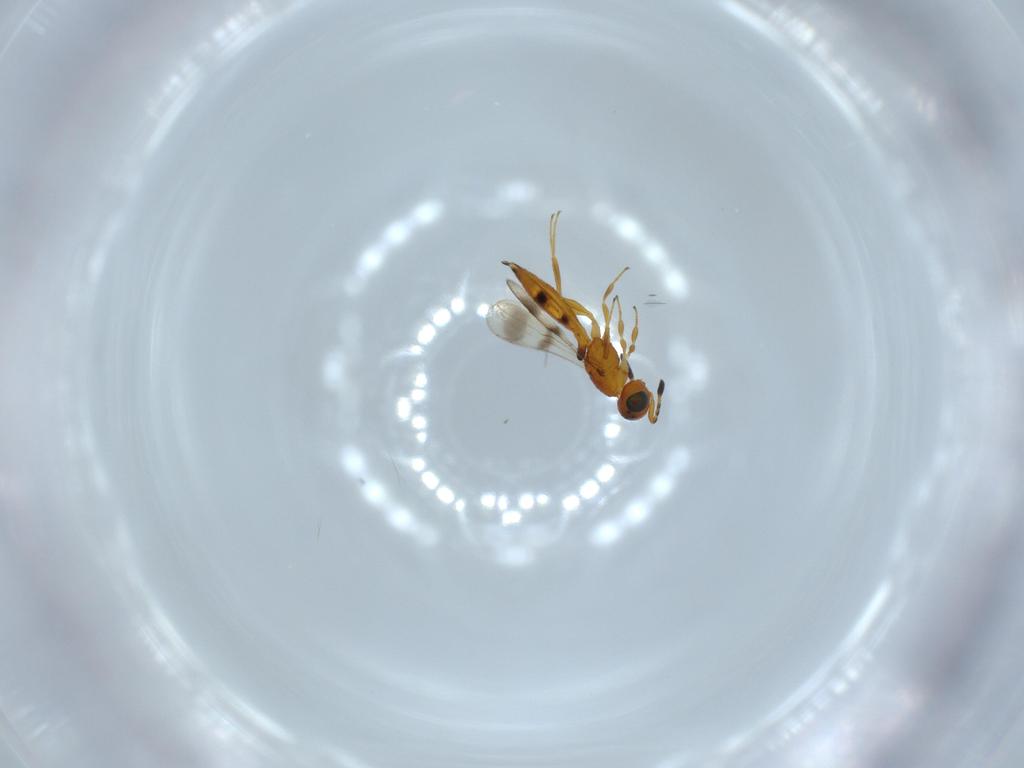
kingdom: Animalia
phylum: Arthropoda
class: Insecta
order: Hymenoptera
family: Scelionidae
